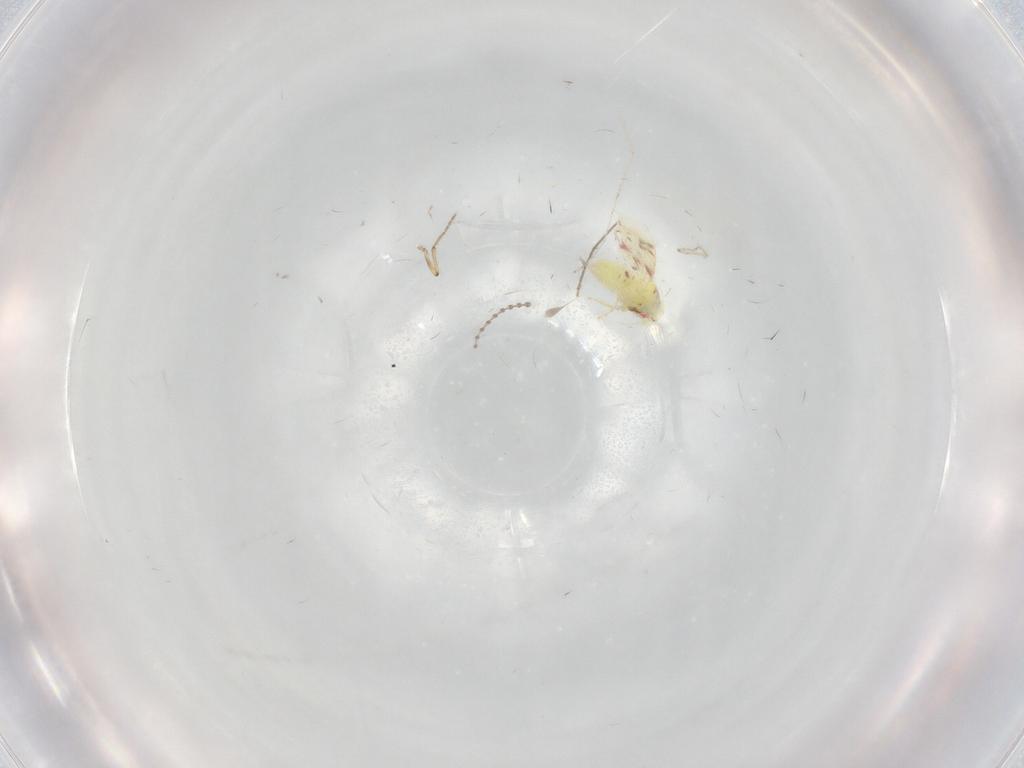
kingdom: Animalia
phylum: Arthropoda
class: Insecta
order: Hemiptera
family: Aleyrodidae
